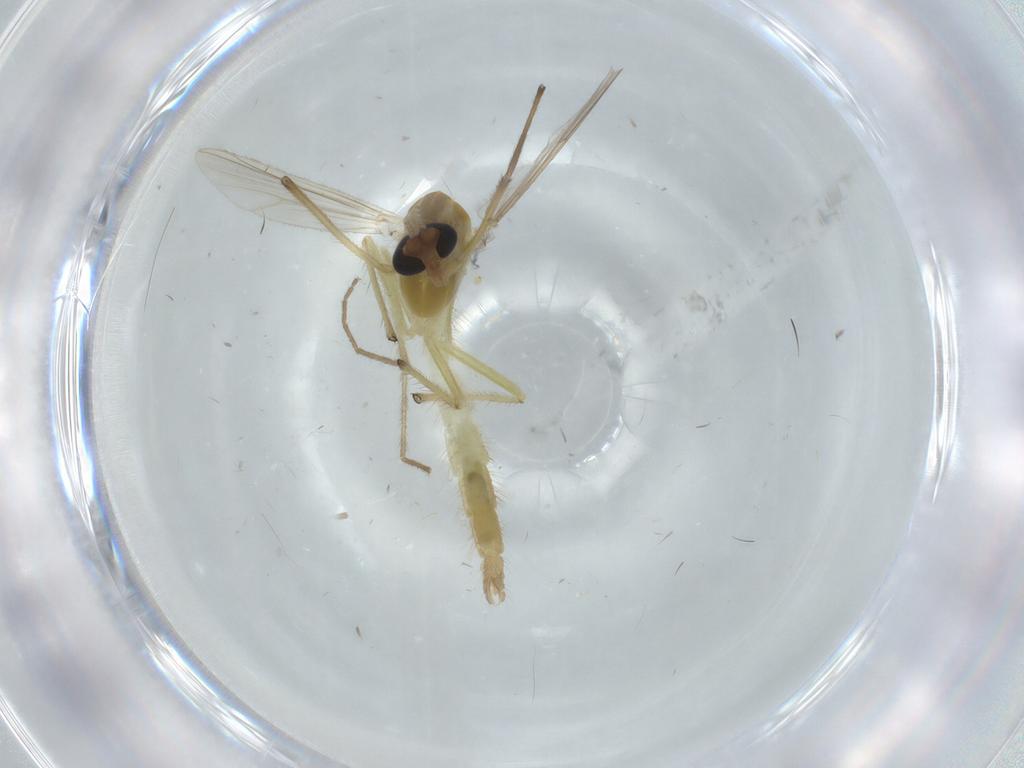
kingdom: Animalia
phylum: Arthropoda
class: Insecta
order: Diptera
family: Chironomidae
